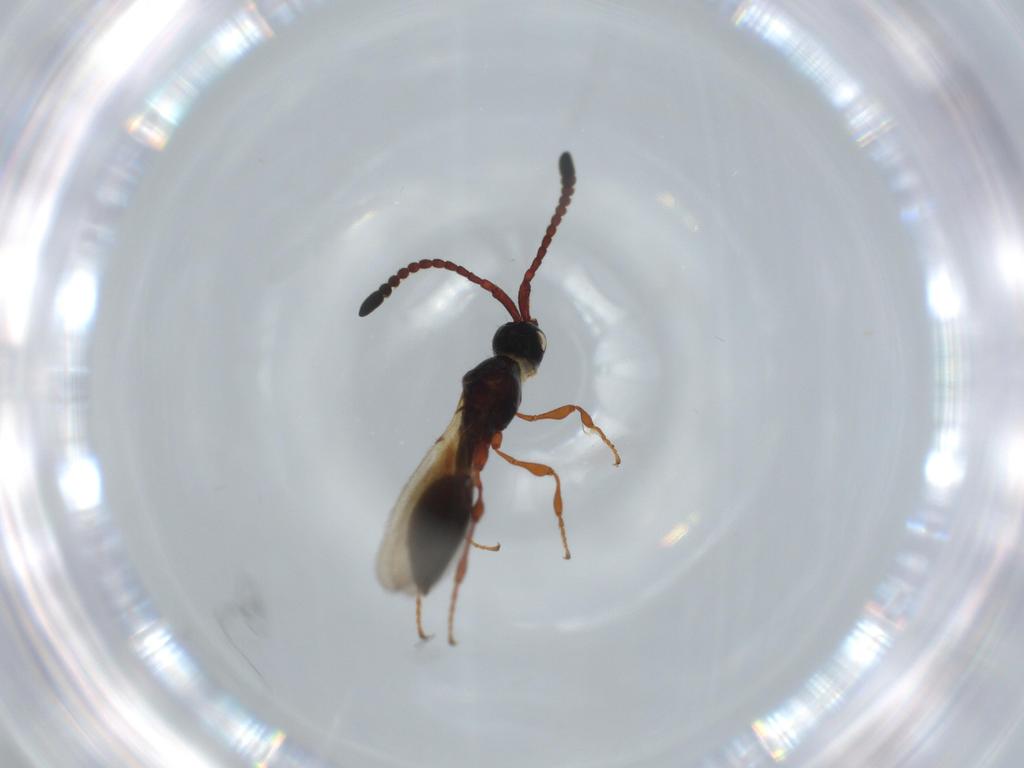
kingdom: Animalia
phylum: Arthropoda
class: Insecta
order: Hymenoptera
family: Diapriidae
